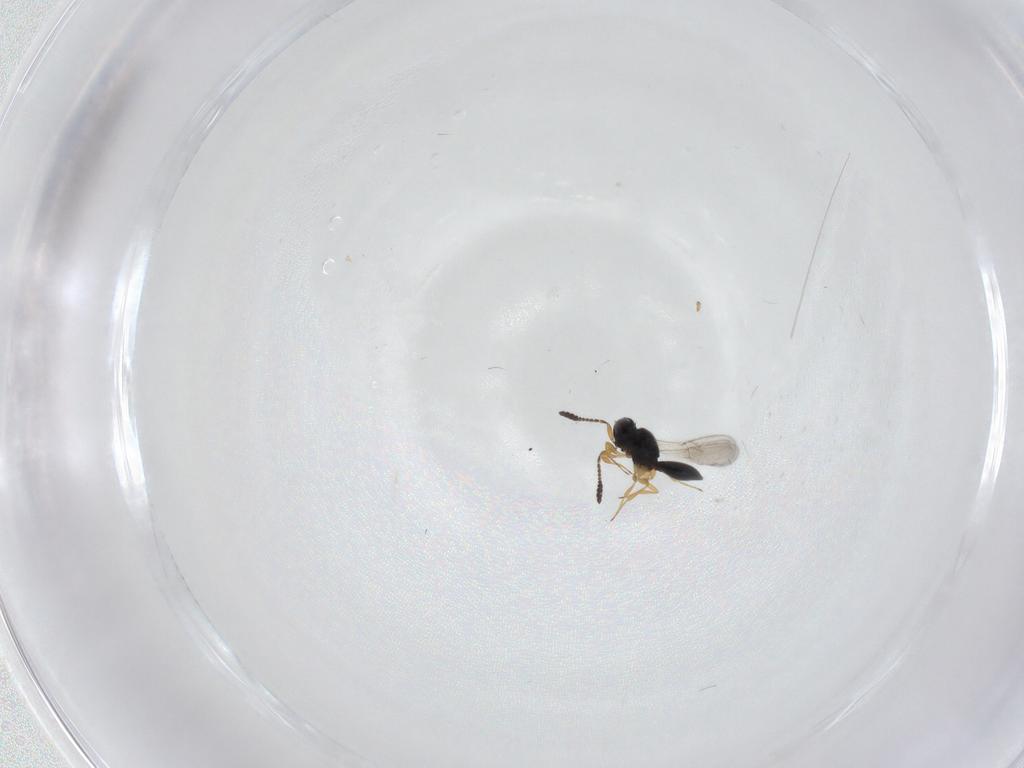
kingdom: Animalia
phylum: Arthropoda
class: Insecta
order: Hymenoptera
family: Scelionidae
